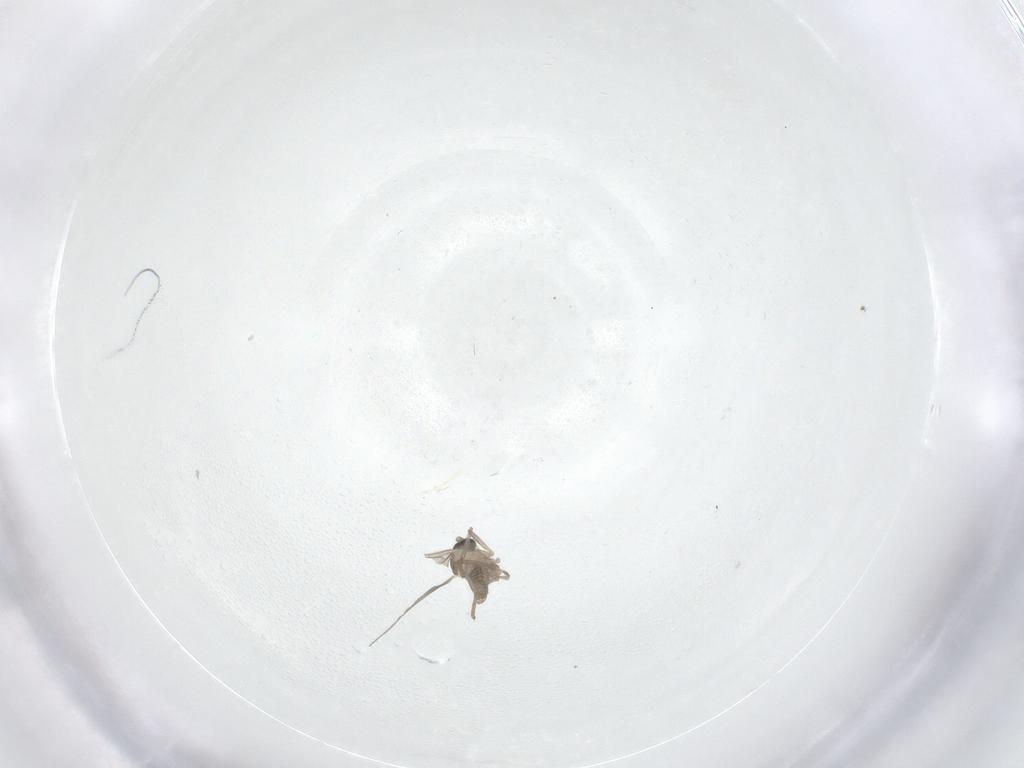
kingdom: Animalia
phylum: Arthropoda
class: Insecta
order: Diptera
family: Cecidomyiidae
